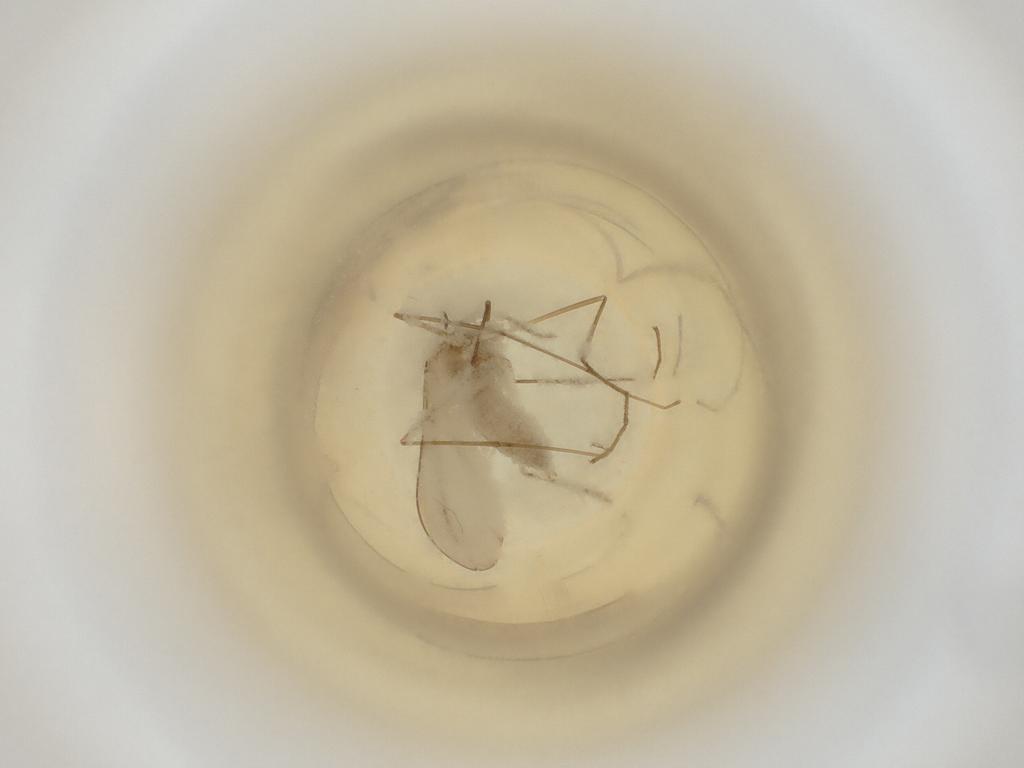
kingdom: Animalia
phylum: Arthropoda
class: Insecta
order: Diptera
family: Cecidomyiidae
